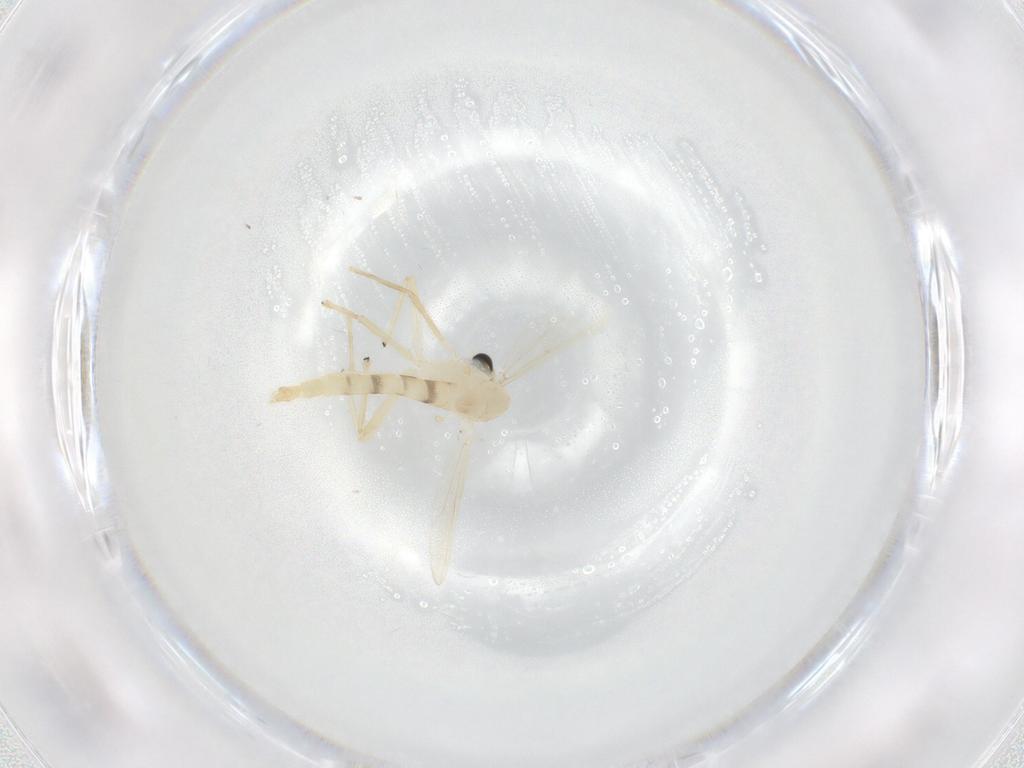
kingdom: Animalia
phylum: Arthropoda
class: Insecta
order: Diptera
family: Chironomidae
